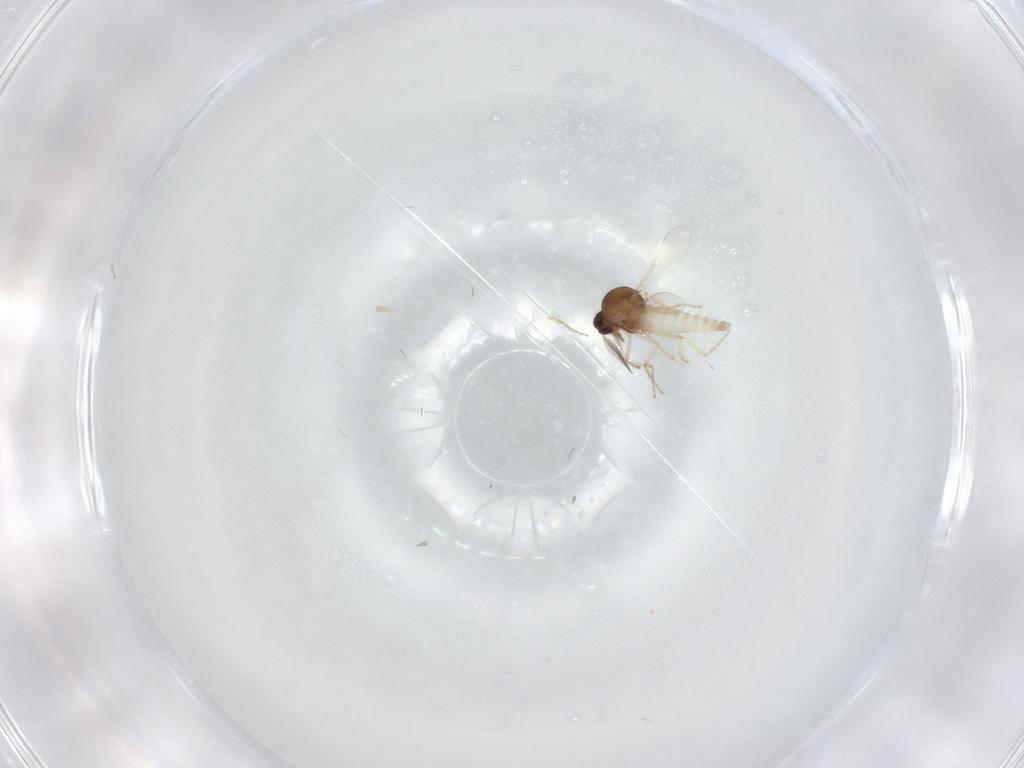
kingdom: Animalia
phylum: Arthropoda
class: Insecta
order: Diptera
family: Ceratopogonidae
